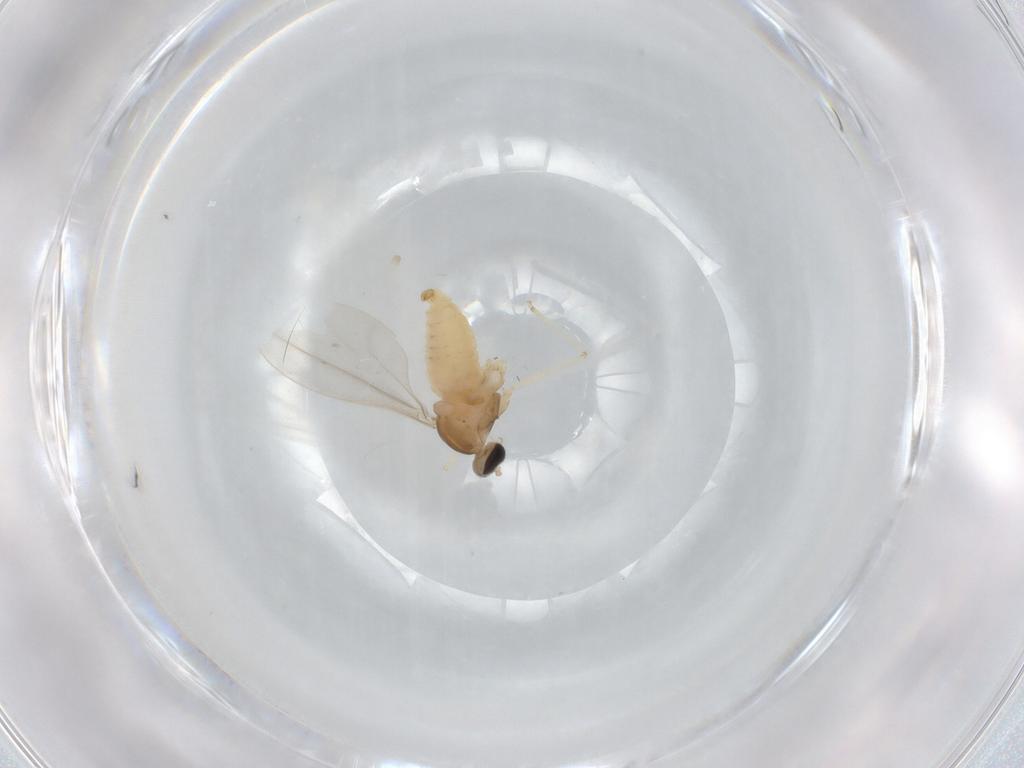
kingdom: Animalia
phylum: Arthropoda
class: Insecta
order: Diptera
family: Cecidomyiidae
